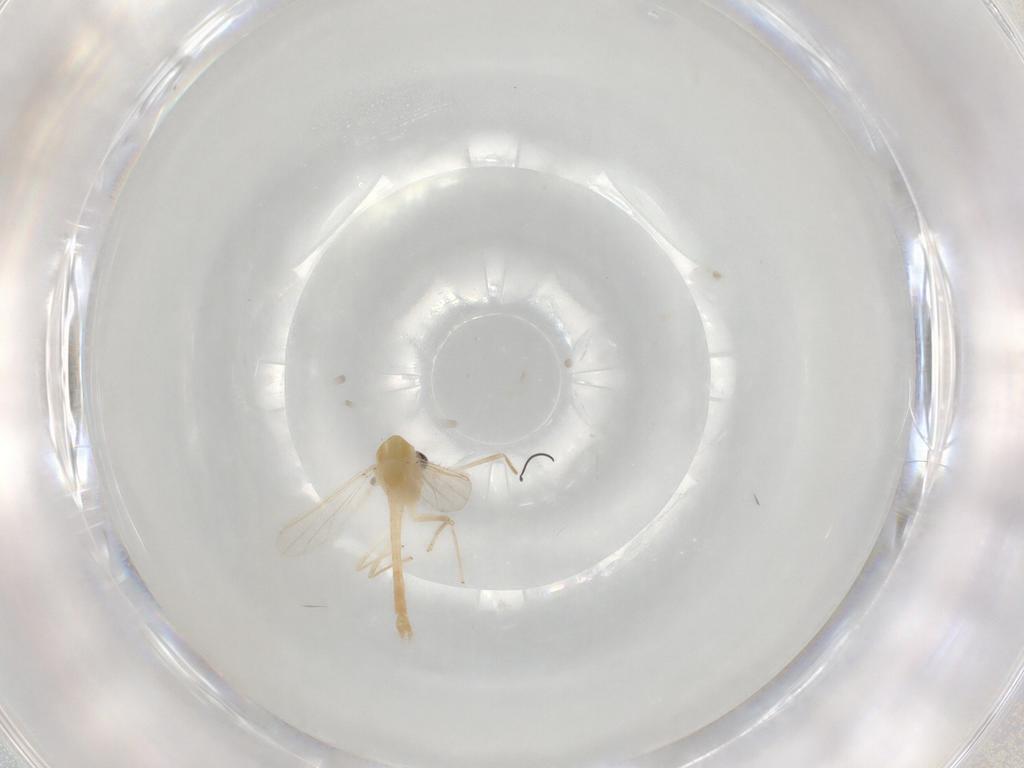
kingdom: Animalia
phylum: Arthropoda
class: Insecta
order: Diptera
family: Chironomidae
